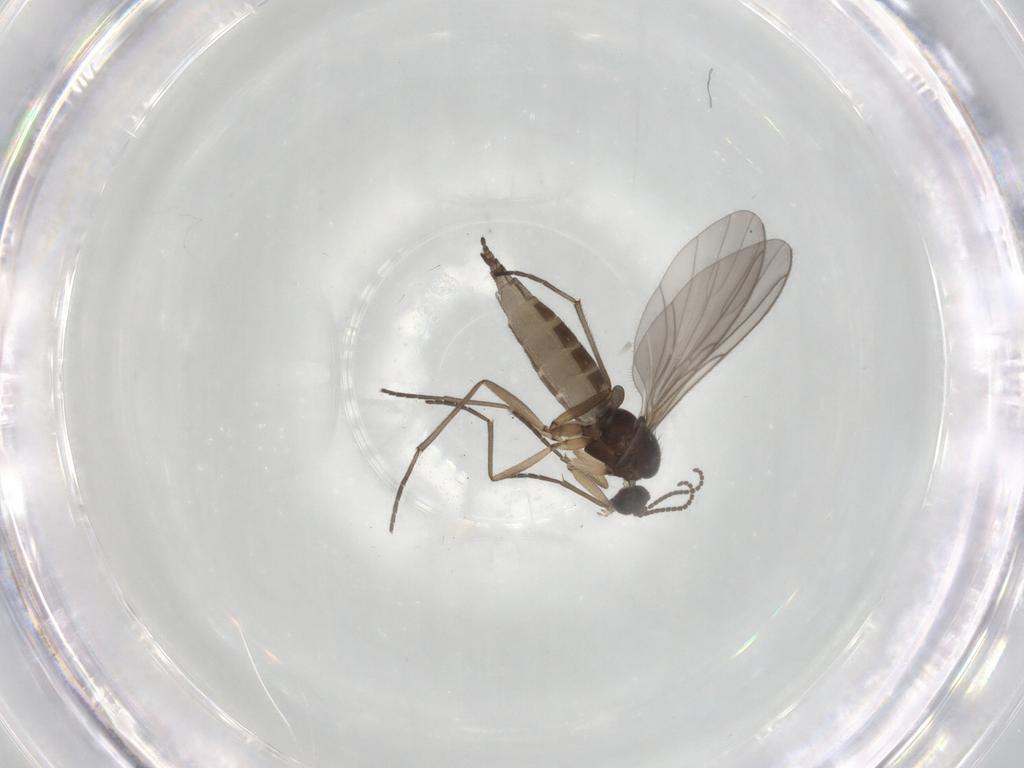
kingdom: Animalia
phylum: Arthropoda
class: Insecta
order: Diptera
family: Sciaridae
